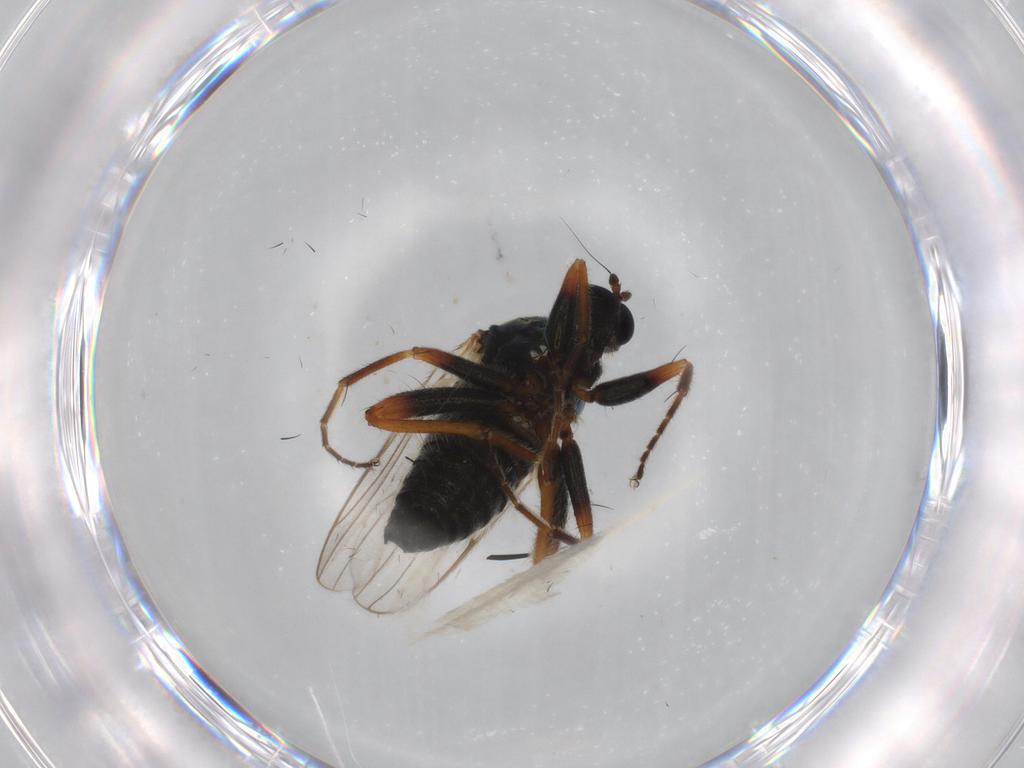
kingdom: Animalia
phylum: Arthropoda
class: Insecta
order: Diptera
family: Hybotidae
